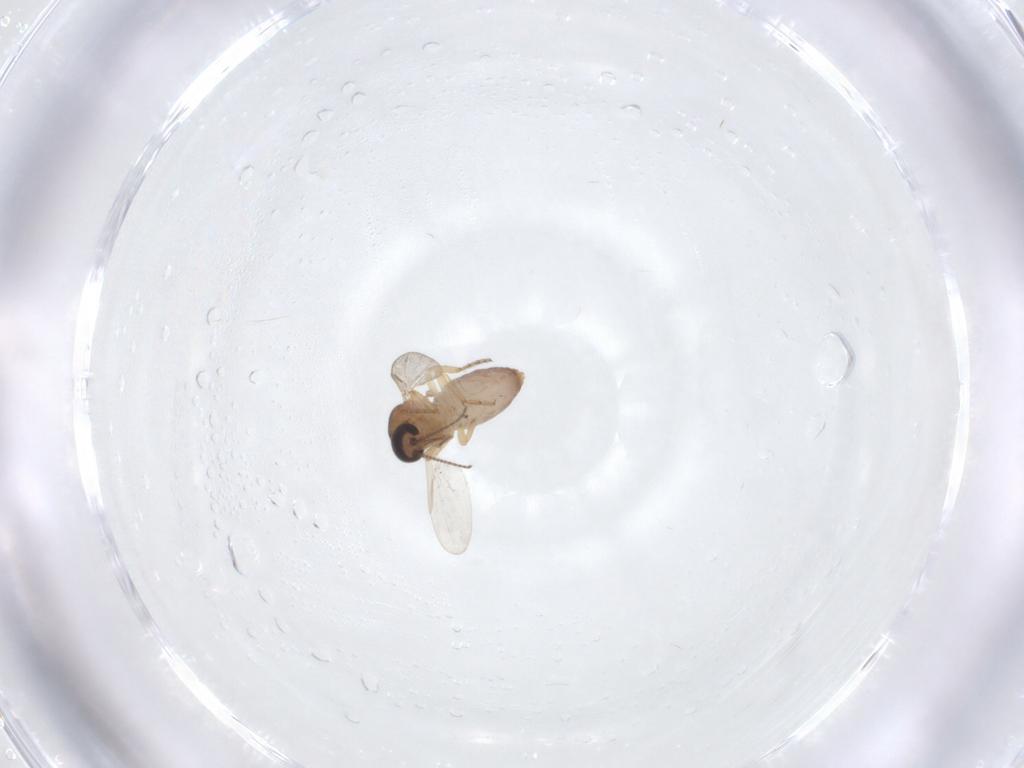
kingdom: Animalia
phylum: Arthropoda
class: Insecta
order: Diptera
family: Ceratopogonidae
